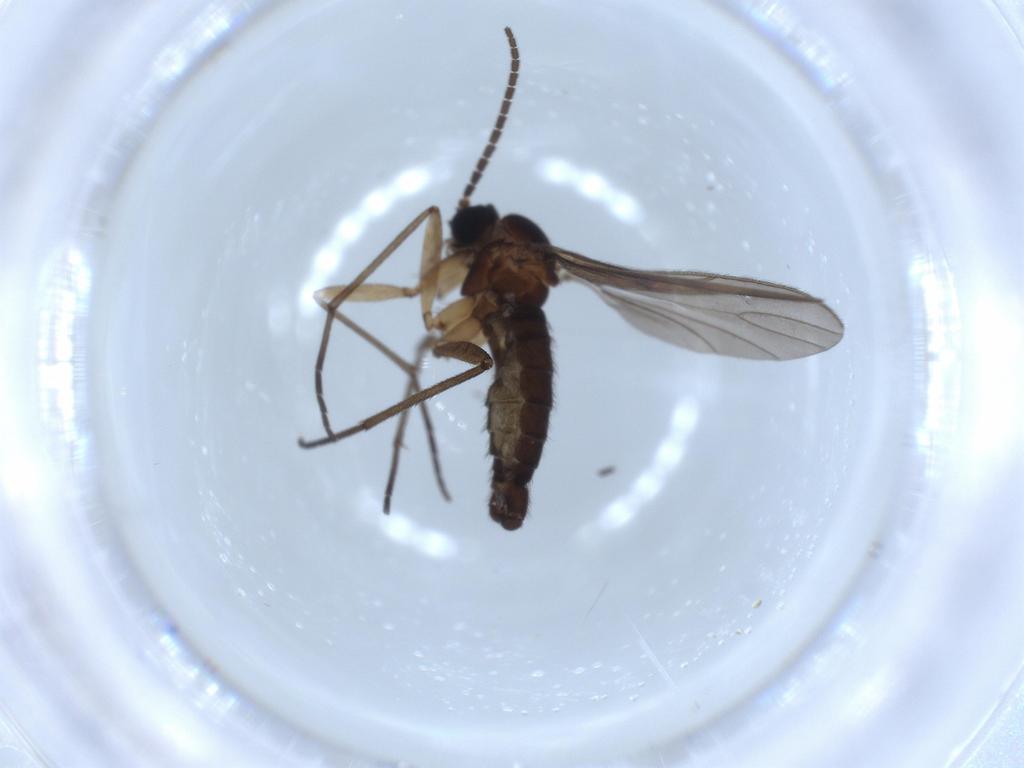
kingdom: Animalia
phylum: Arthropoda
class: Insecta
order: Diptera
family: Sciaridae
